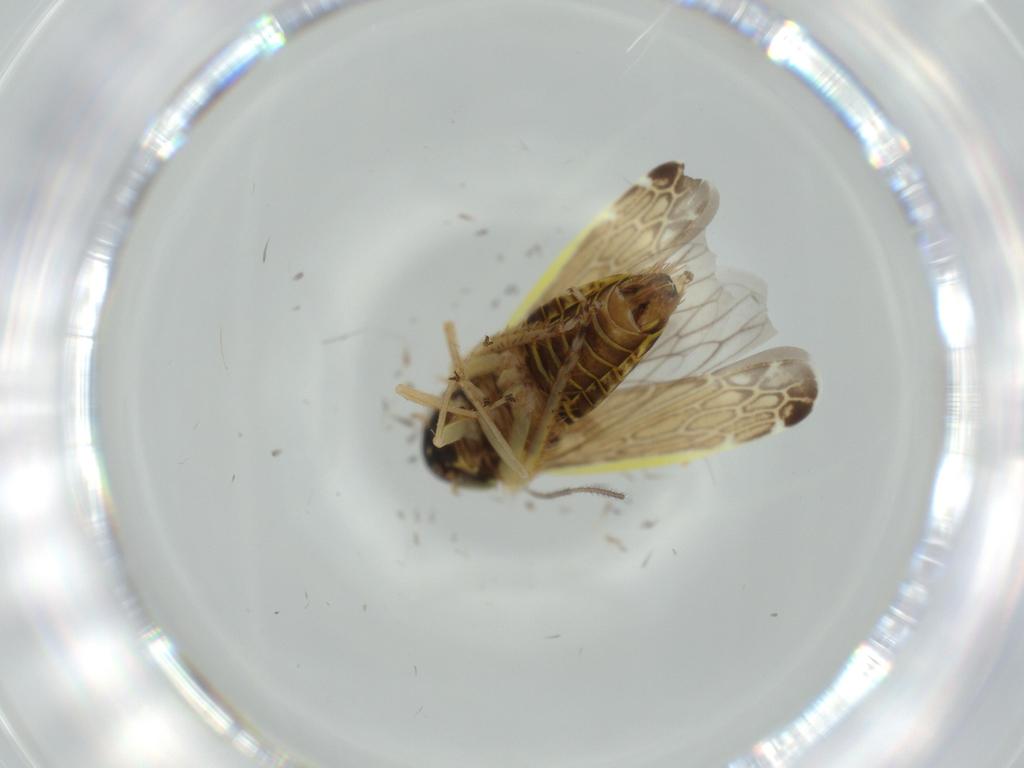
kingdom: Animalia
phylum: Arthropoda
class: Insecta
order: Hemiptera
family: Cicadellidae
